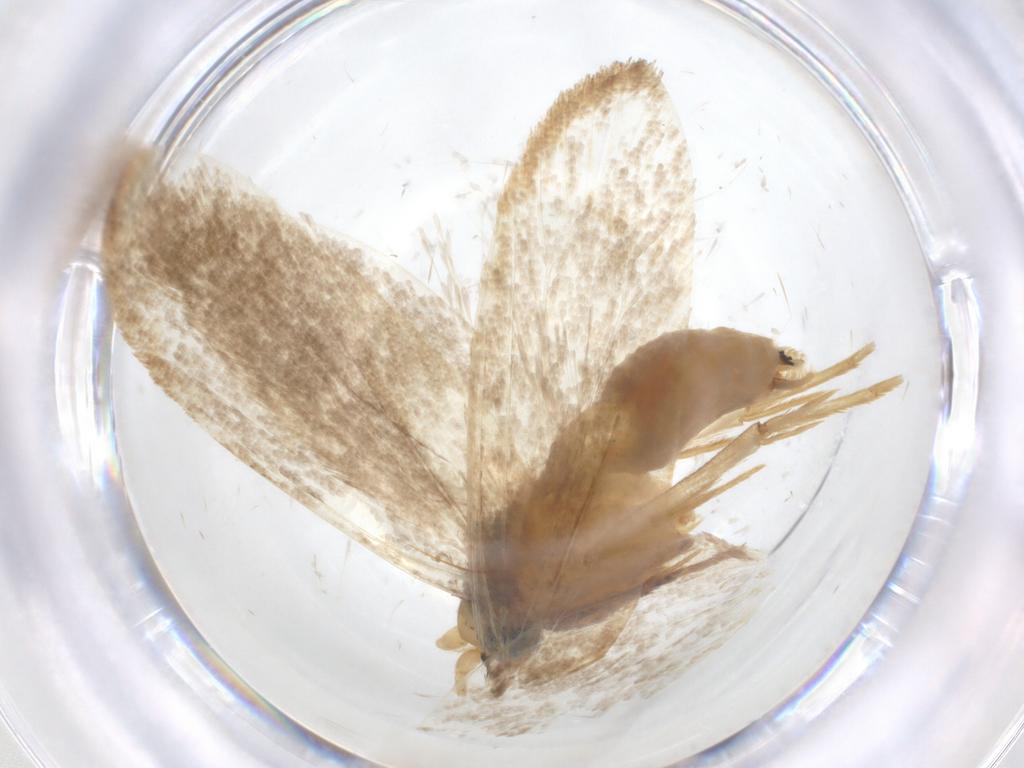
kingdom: Animalia
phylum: Arthropoda
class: Insecta
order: Lepidoptera
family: Erebidae
